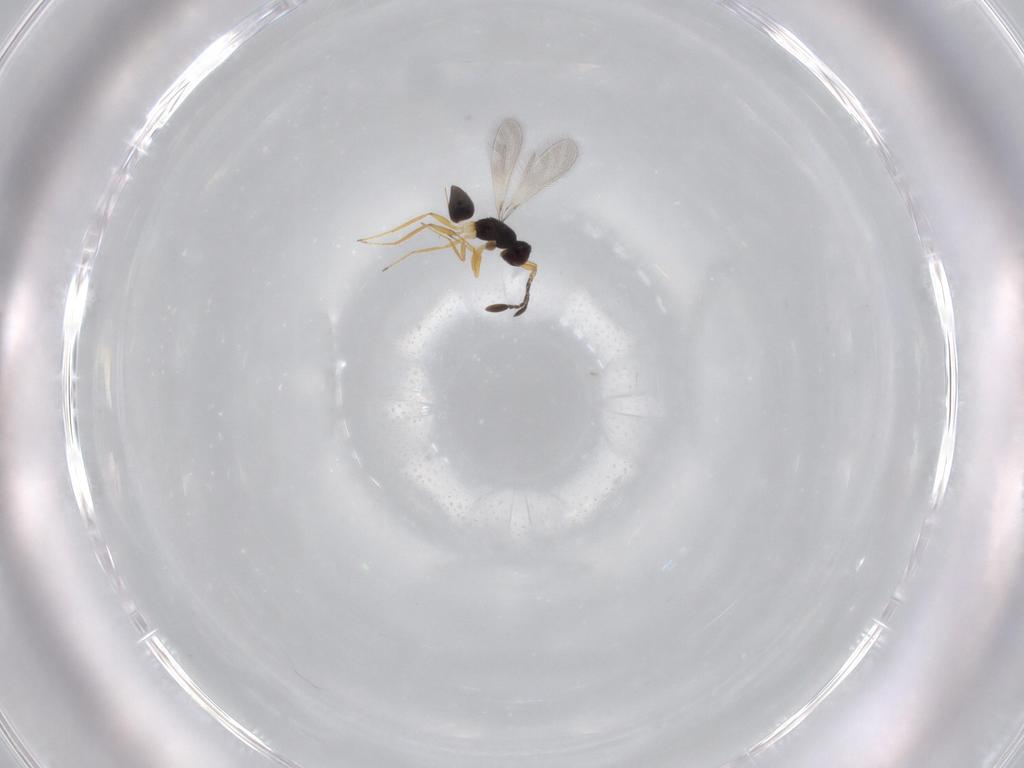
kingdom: Animalia
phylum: Arthropoda
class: Insecta
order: Hymenoptera
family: Mymaridae
